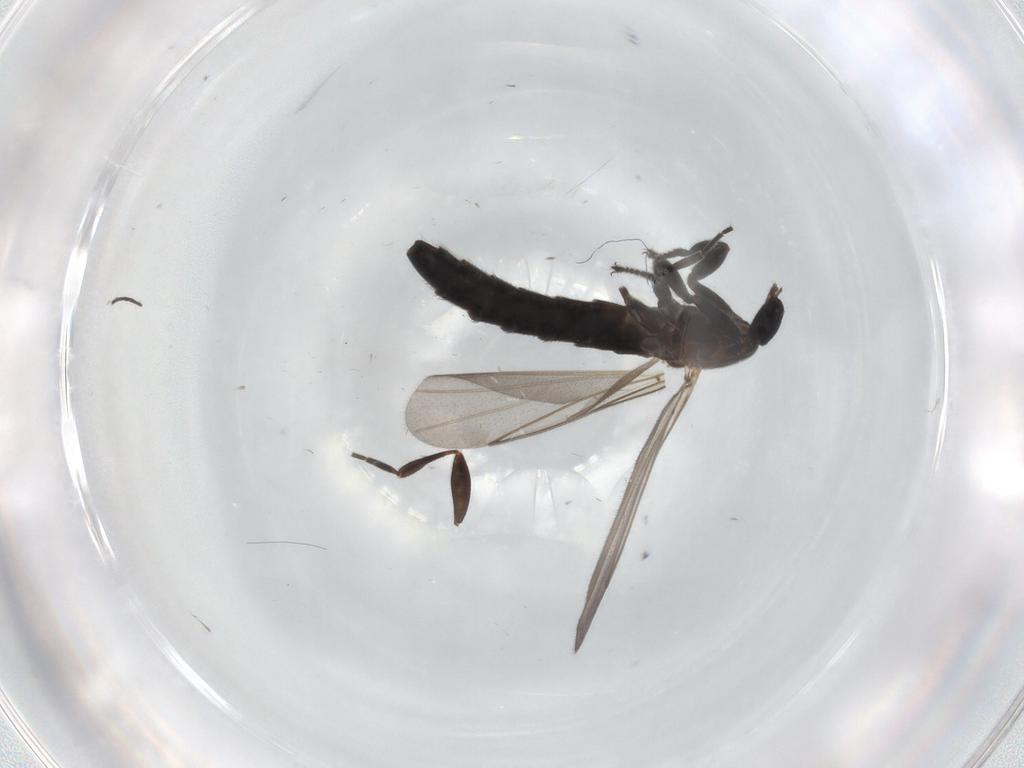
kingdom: Animalia
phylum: Arthropoda
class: Insecta
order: Diptera
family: Scatopsidae
